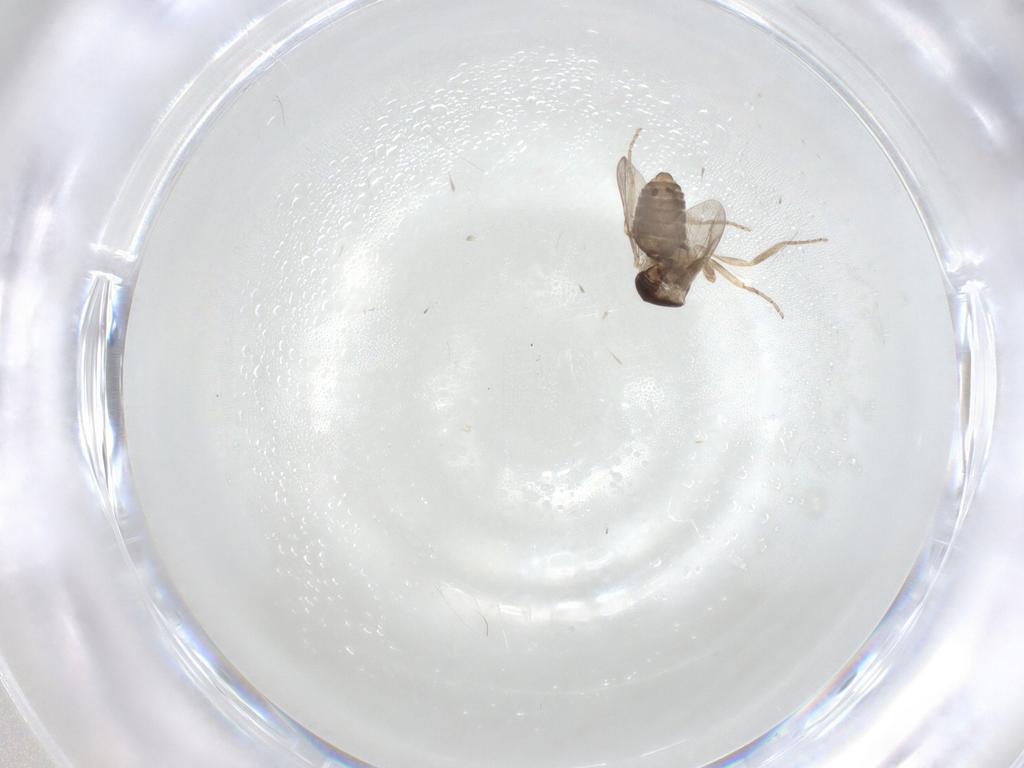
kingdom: Animalia
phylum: Arthropoda
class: Insecta
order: Diptera
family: Ceratopogonidae
